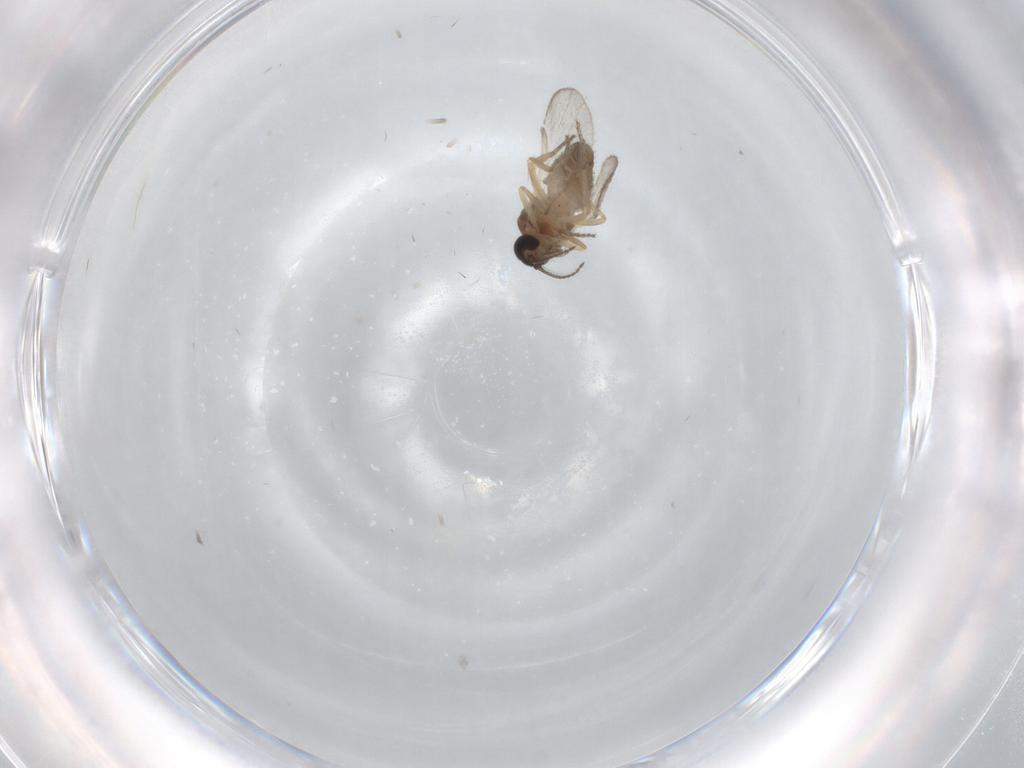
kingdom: Animalia
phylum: Arthropoda
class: Insecta
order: Diptera
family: Ceratopogonidae
